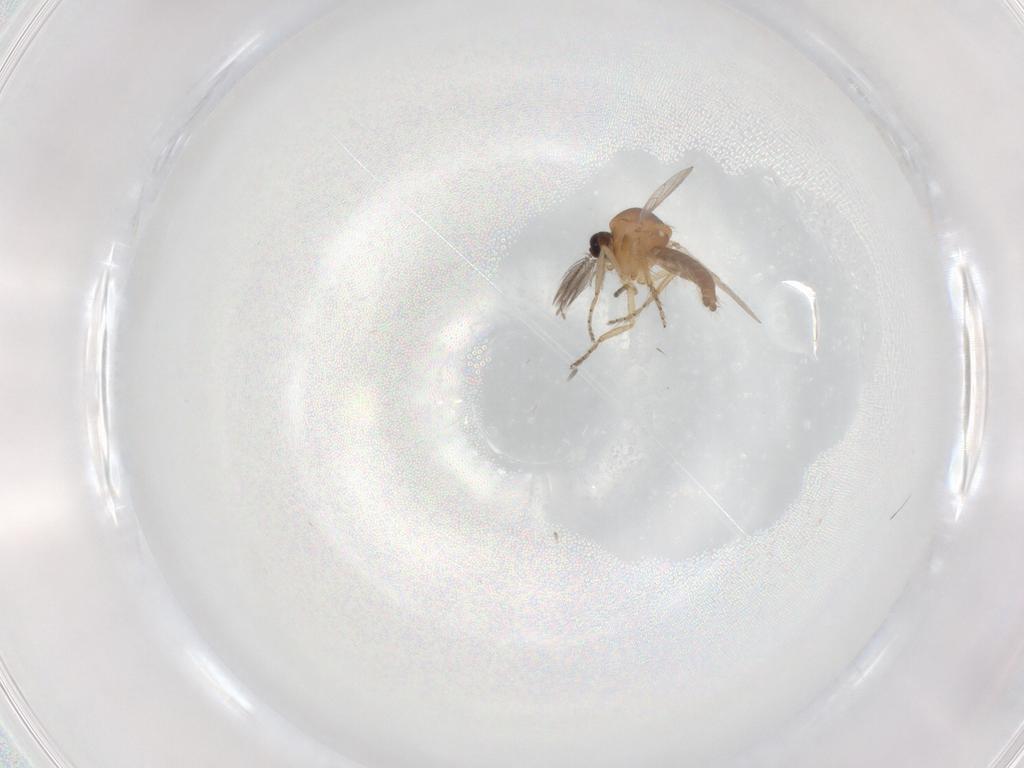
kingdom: Animalia
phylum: Arthropoda
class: Insecta
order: Diptera
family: Ceratopogonidae
